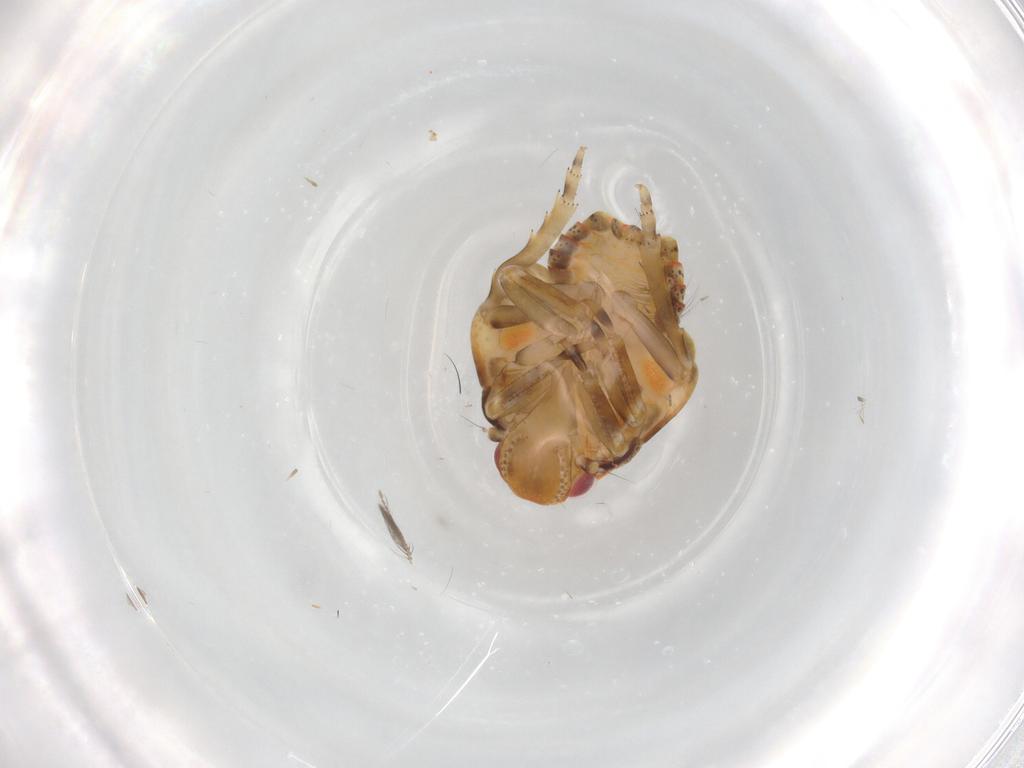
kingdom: Animalia
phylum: Arthropoda
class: Insecta
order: Hemiptera
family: Flatidae
